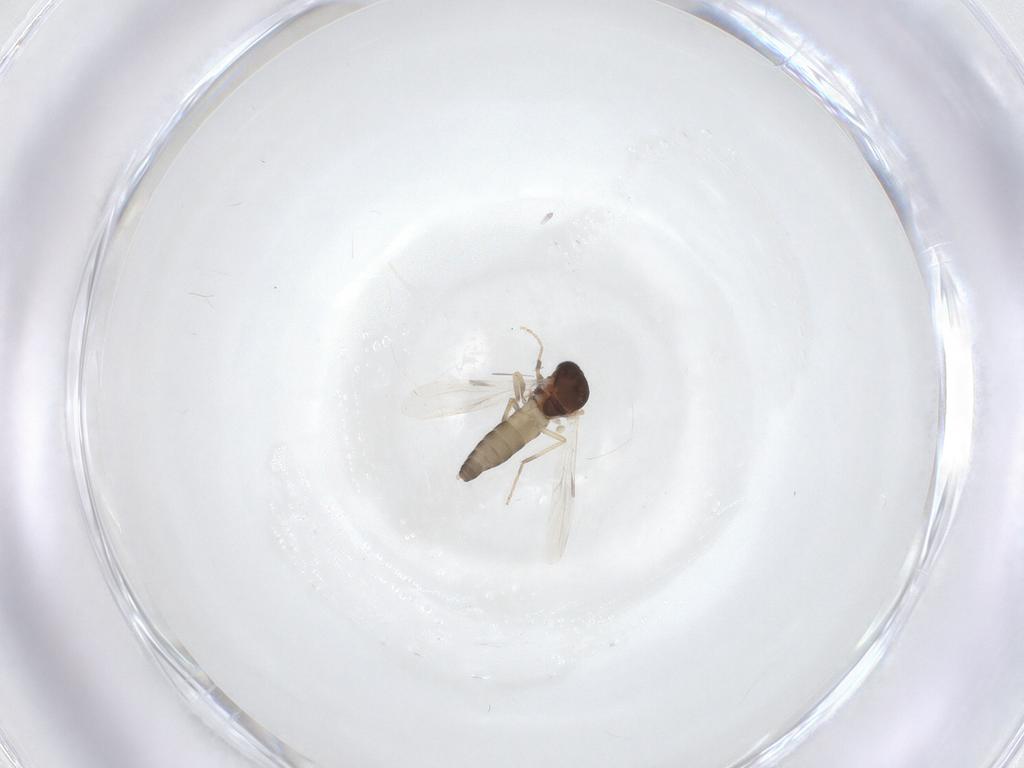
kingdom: Animalia
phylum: Arthropoda
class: Insecta
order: Diptera
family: Ceratopogonidae
